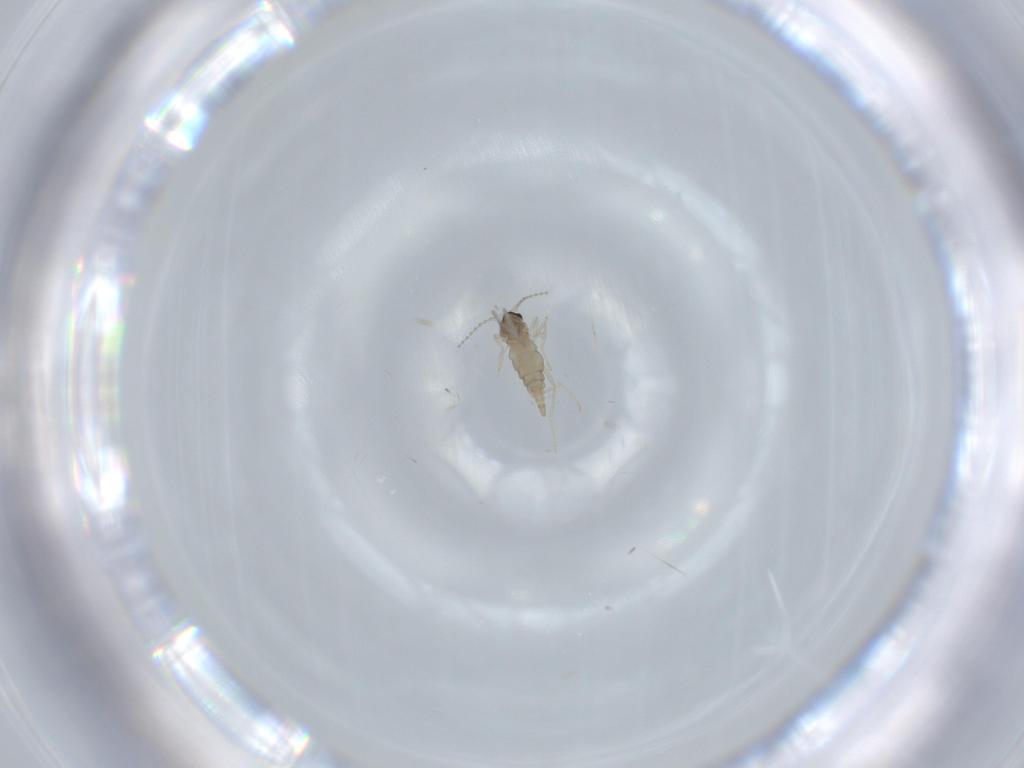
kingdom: Animalia
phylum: Arthropoda
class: Insecta
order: Diptera
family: Cecidomyiidae
